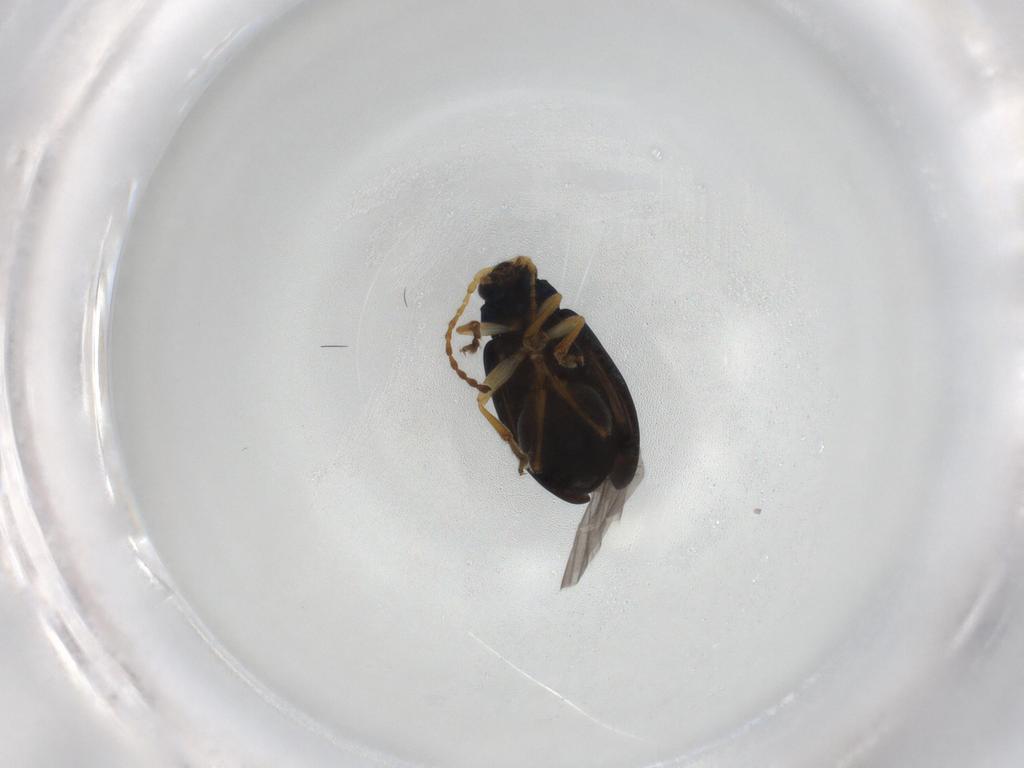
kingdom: Animalia
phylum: Arthropoda
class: Insecta
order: Coleoptera
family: Chrysomelidae
